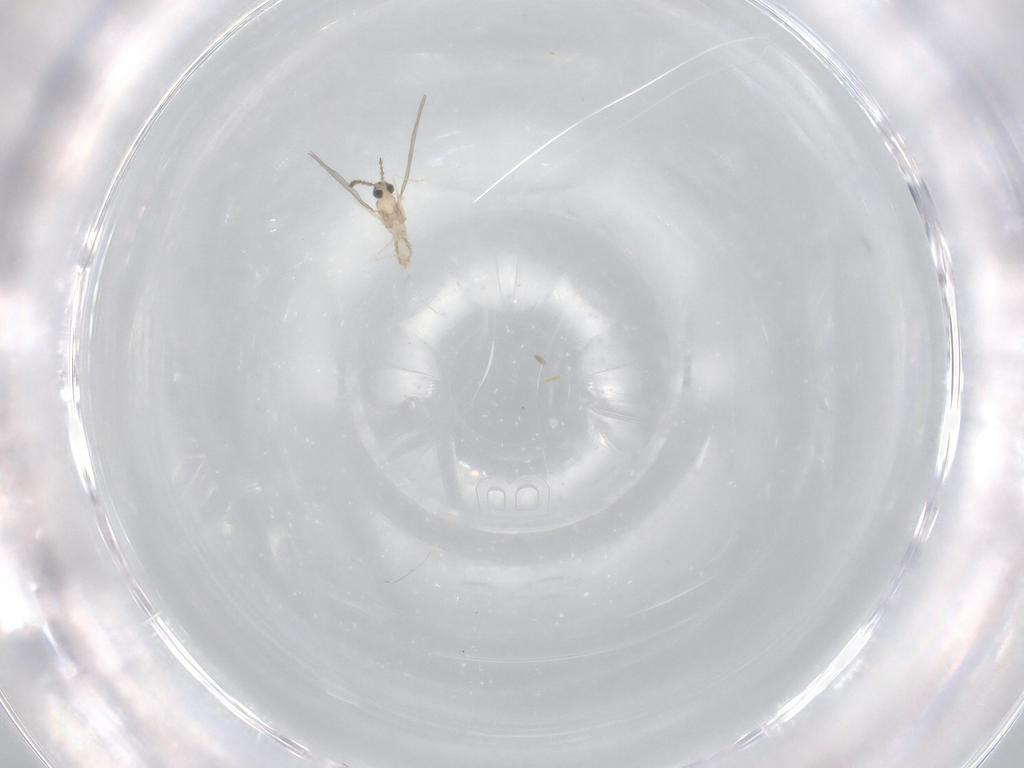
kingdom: Animalia
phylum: Arthropoda
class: Insecta
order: Diptera
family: Cecidomyiidae
